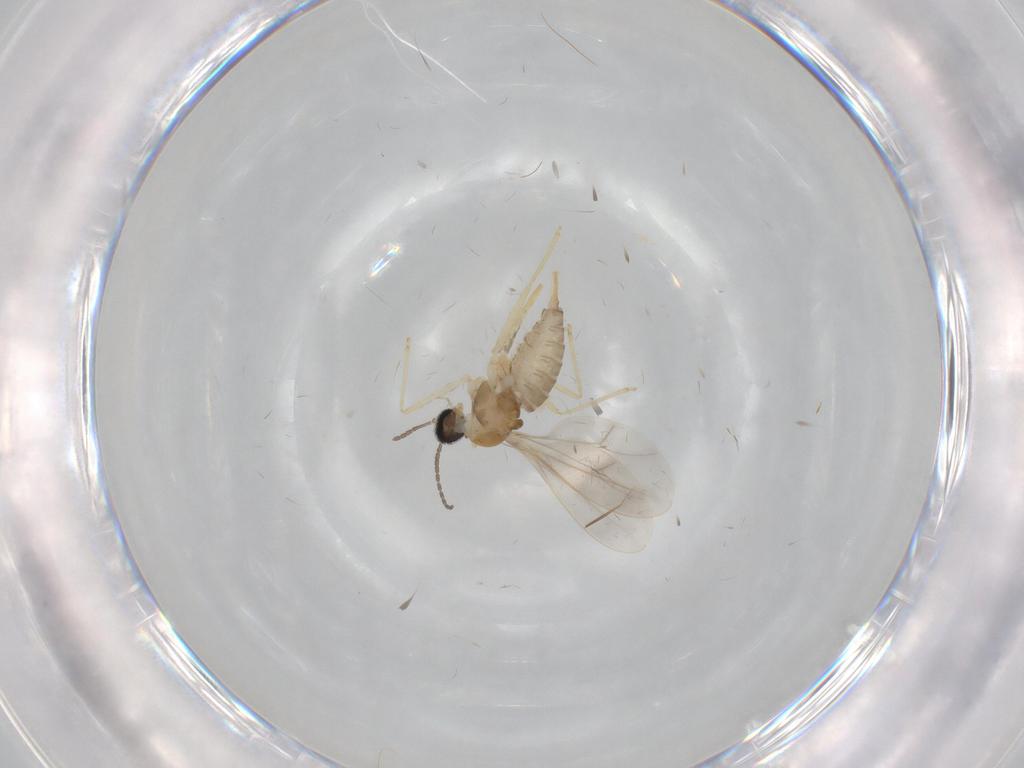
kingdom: Animalia
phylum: Arthropoda
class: Insecta
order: Diptera
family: Cecidomyiidae
